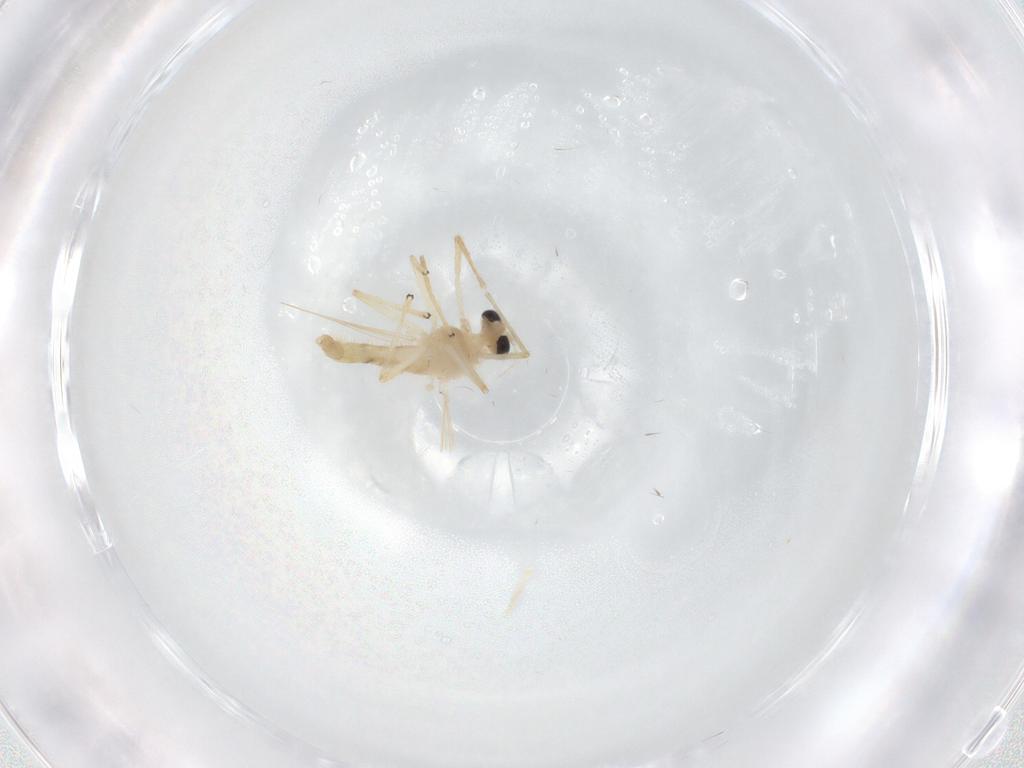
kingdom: Animalia
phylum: Arthropoda
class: Insecta
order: Diptera
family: Chironomidae
